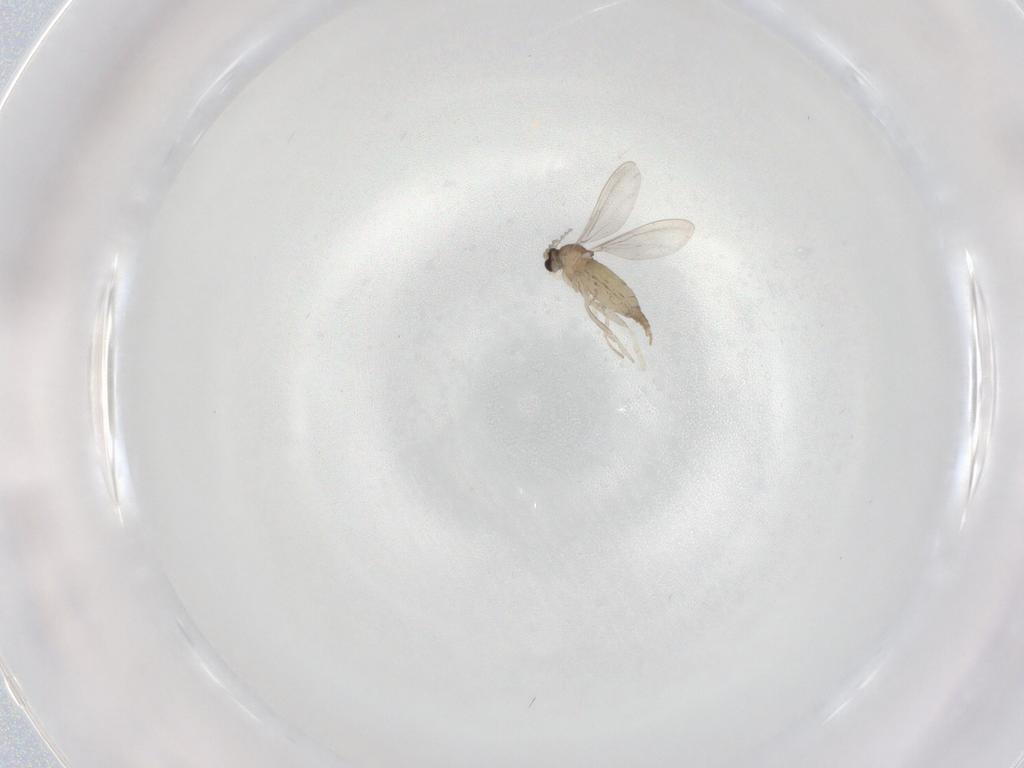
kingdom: Animalia
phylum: Arthropoda
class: Insecta
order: Diptera
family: Cecidomyiidae
